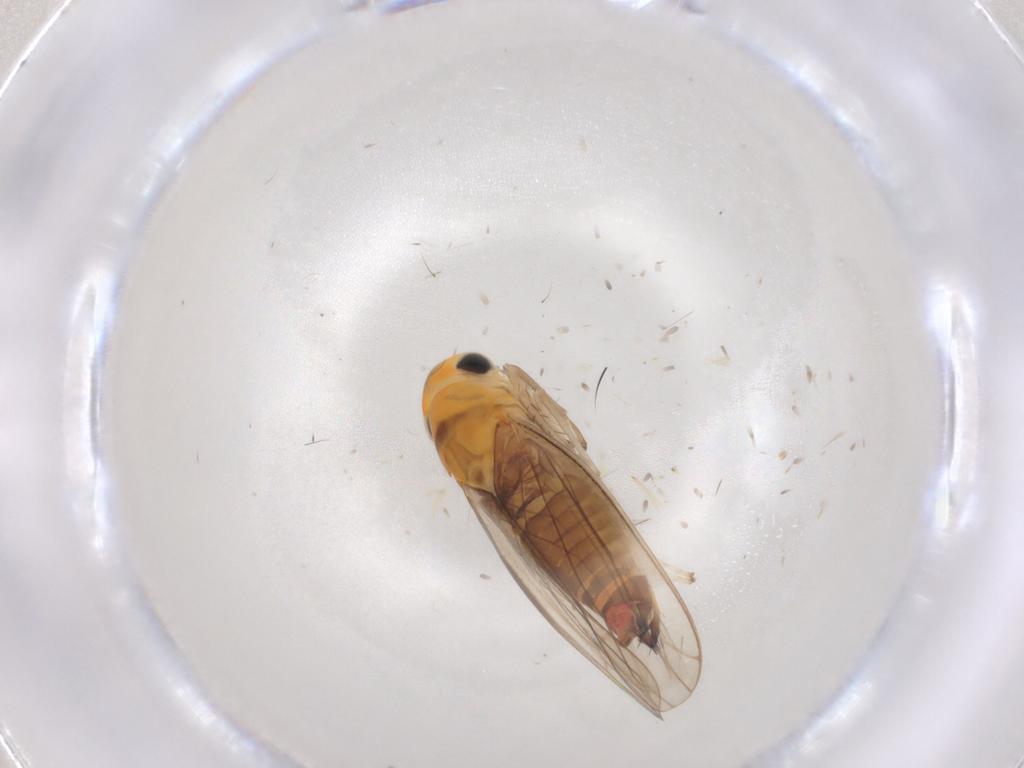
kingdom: Animalia
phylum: Arthropoda
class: Insecta
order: Hemiptera
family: Cicadellidae
